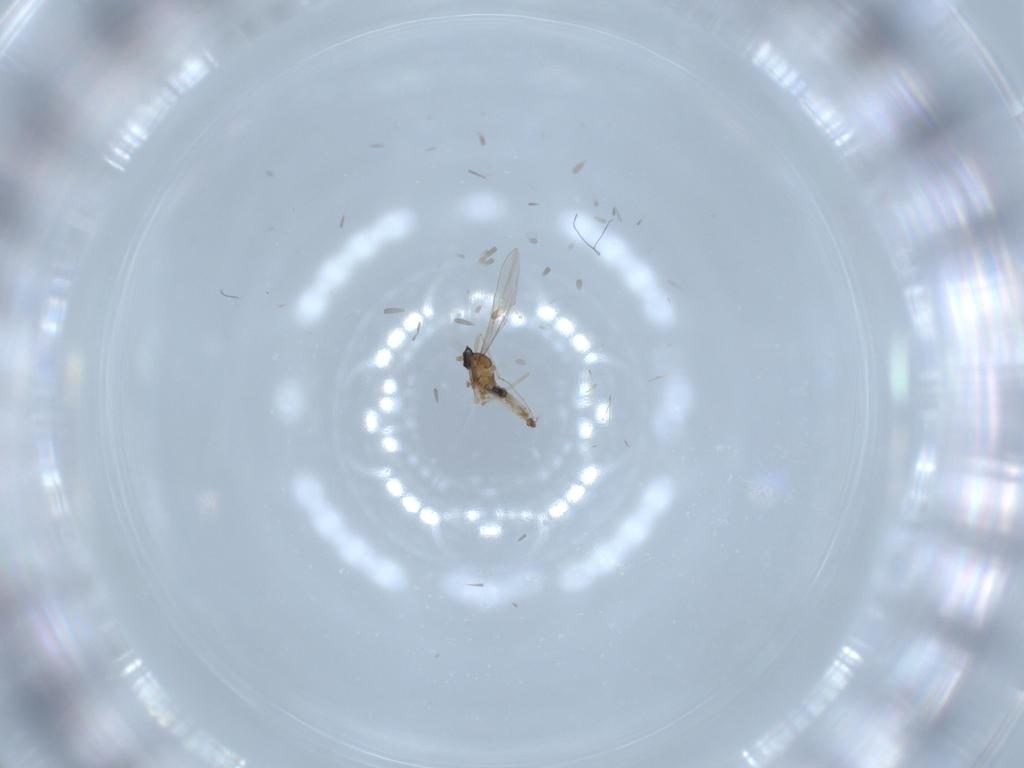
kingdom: Animalia
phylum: Arthropoda
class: Insecta
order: Diptera
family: Cecidomyiidae
